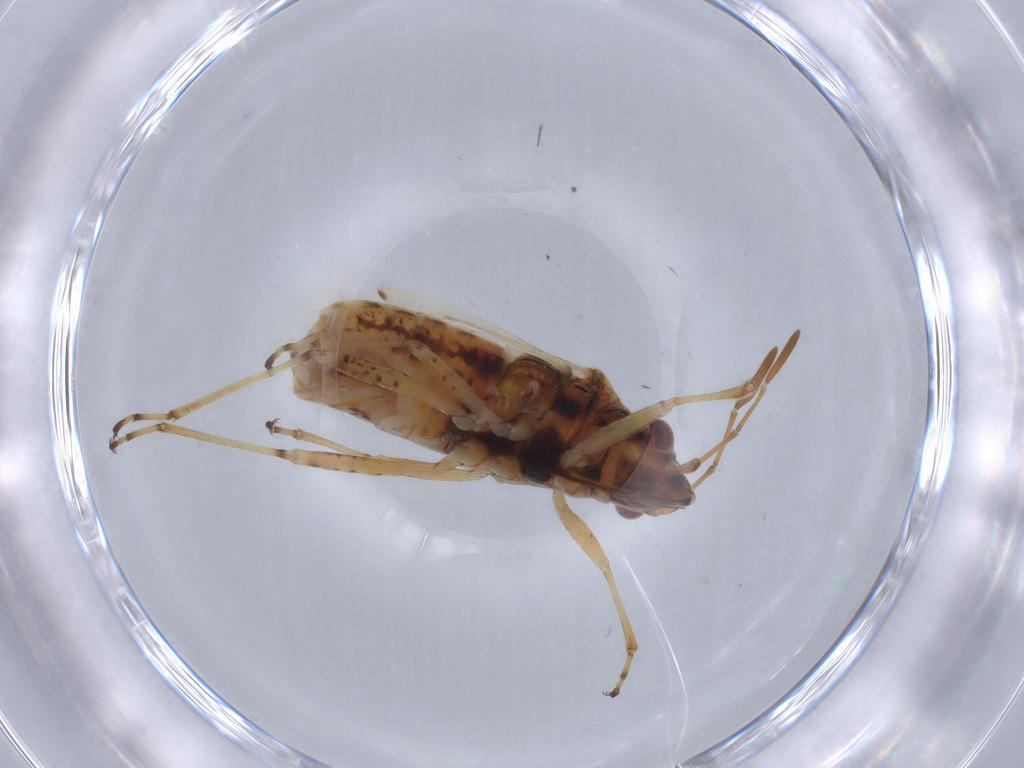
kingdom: Animalia
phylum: Arthropoda
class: Insecta
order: Hemiptera
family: Lygaeidae
